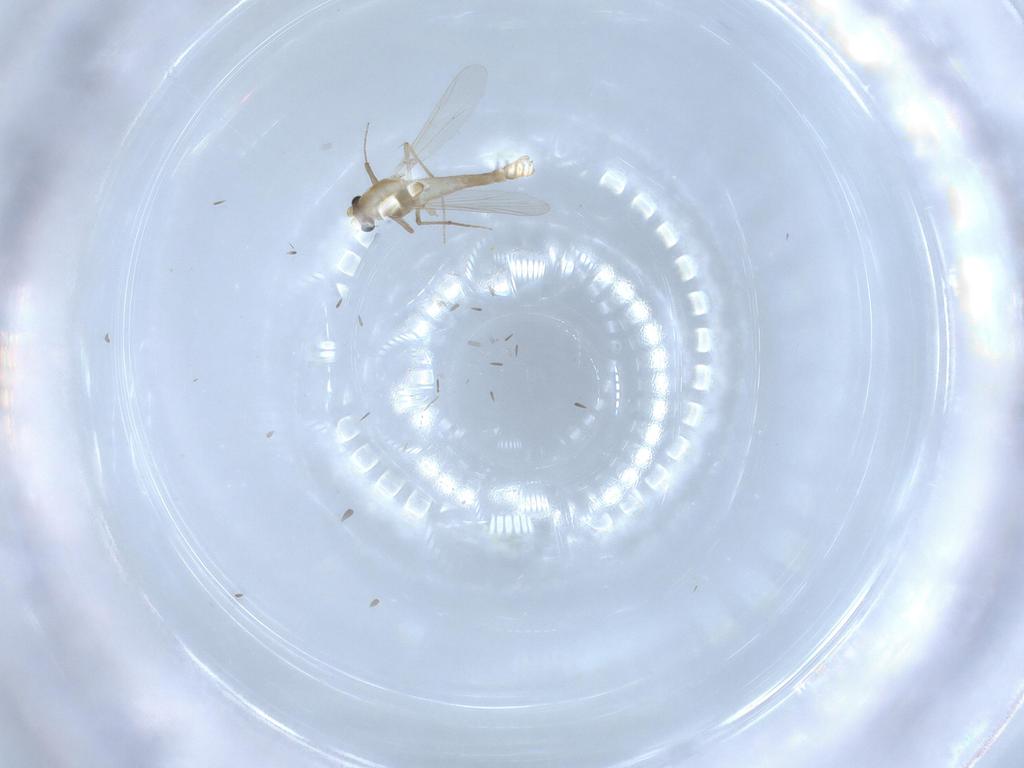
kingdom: Animalia
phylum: Arthropoda
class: Insecta
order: Diptera
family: Chironomidae
